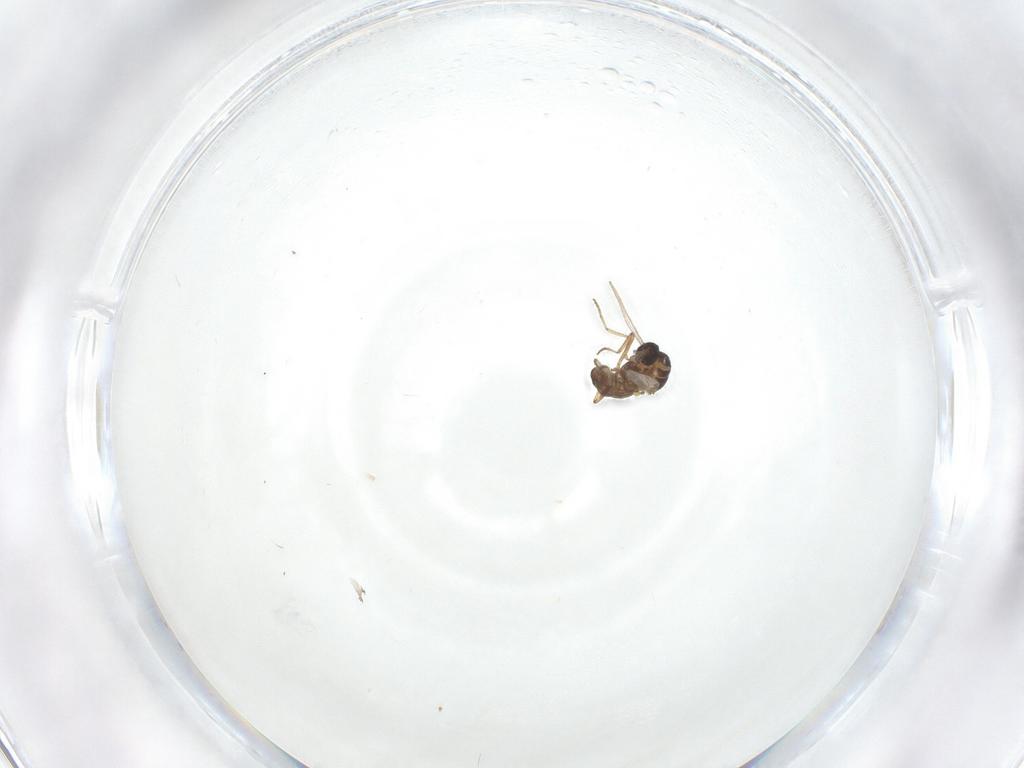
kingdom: Animalia
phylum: Arthropoda
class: Insecta
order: Diptera
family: Ceratopogonidae
